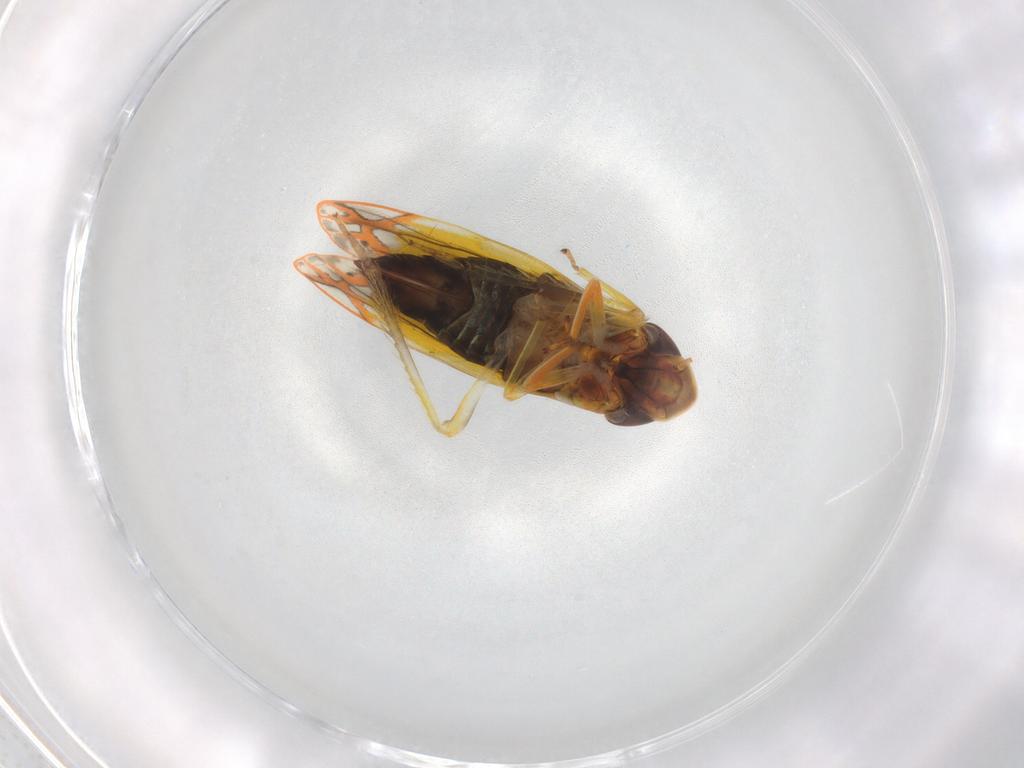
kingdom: Animalia
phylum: Arthropoda
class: Insecta
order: Hemiptera
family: Cicadellidae
